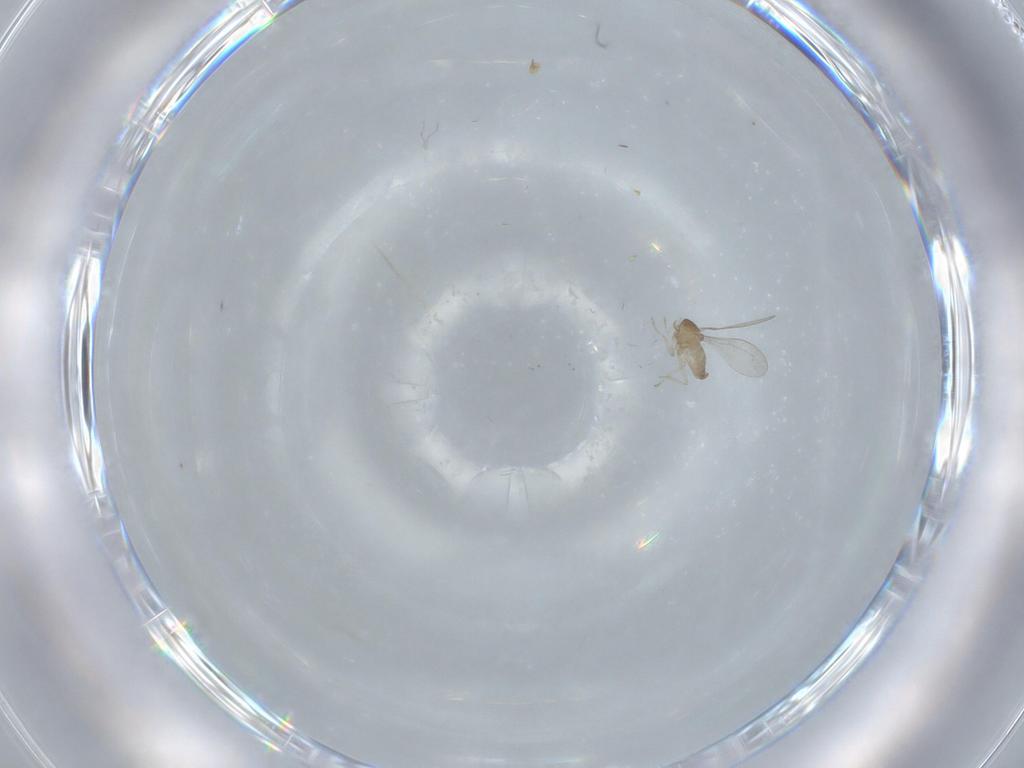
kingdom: Animalia
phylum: Arthropoda
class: Insecta
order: Diptera
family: Cecidomyiidae
